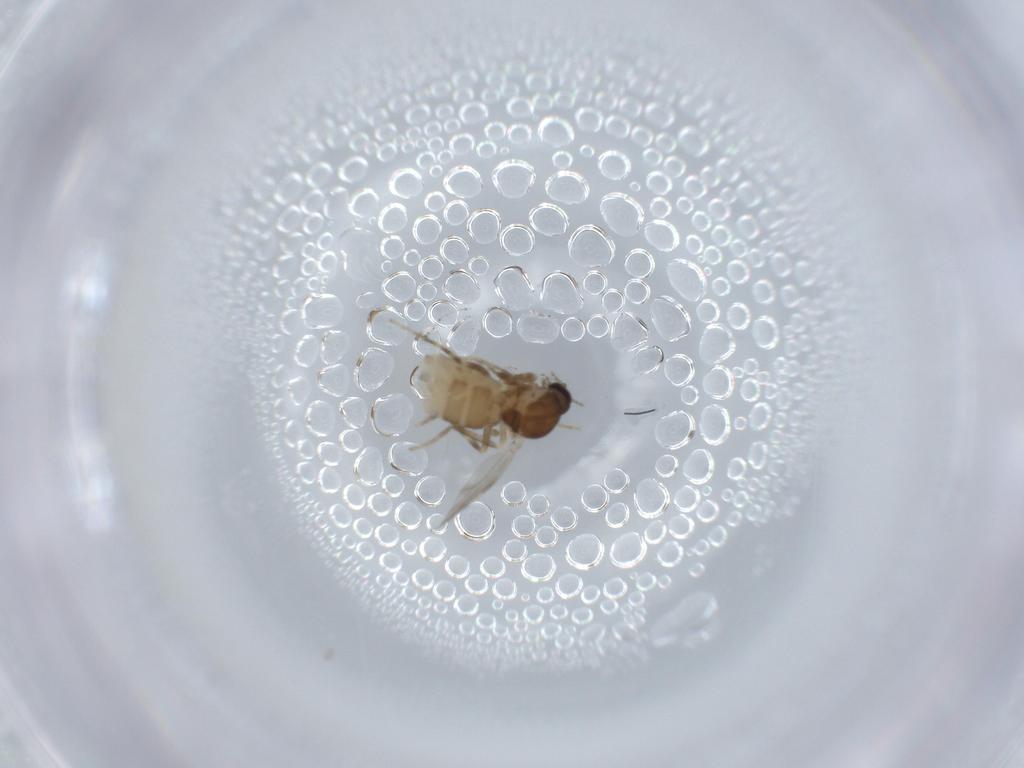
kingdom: Animalia
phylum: Arthropoda
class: Insecta
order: Diptera
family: Ceratopogonidae
